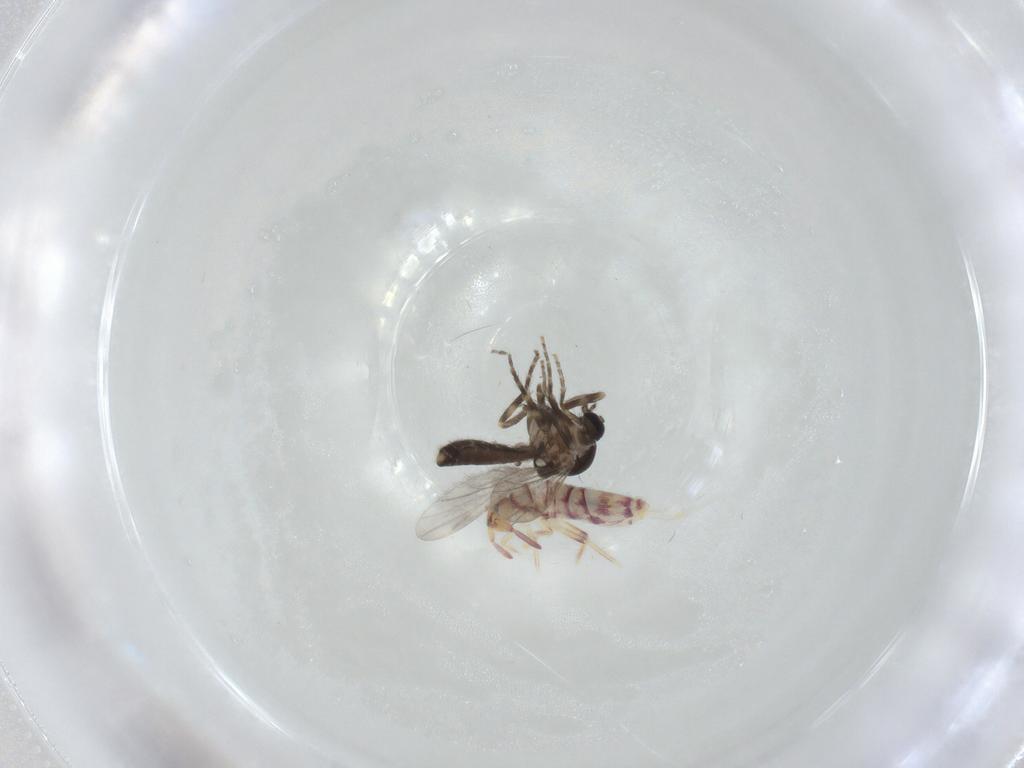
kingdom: Animalia
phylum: Arthropoda
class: Insecta
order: Diptera
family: Ceratopogonidae
